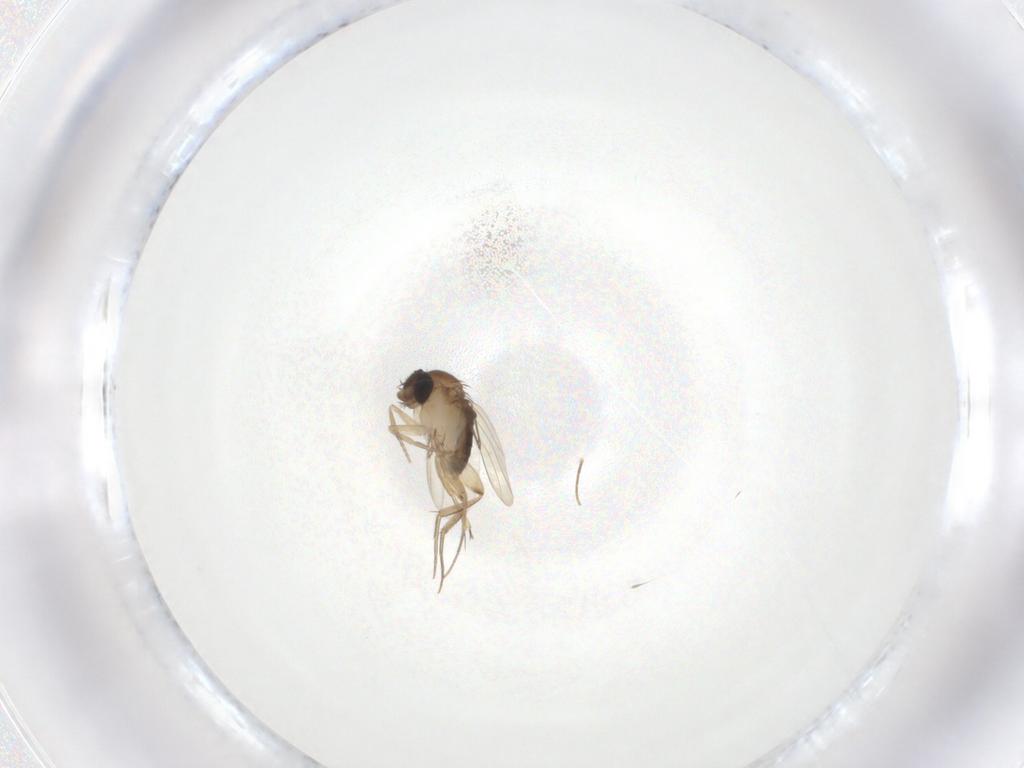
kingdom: Animalia
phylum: Arthropoda
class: Insecta
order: Diptera
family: Phoridae
